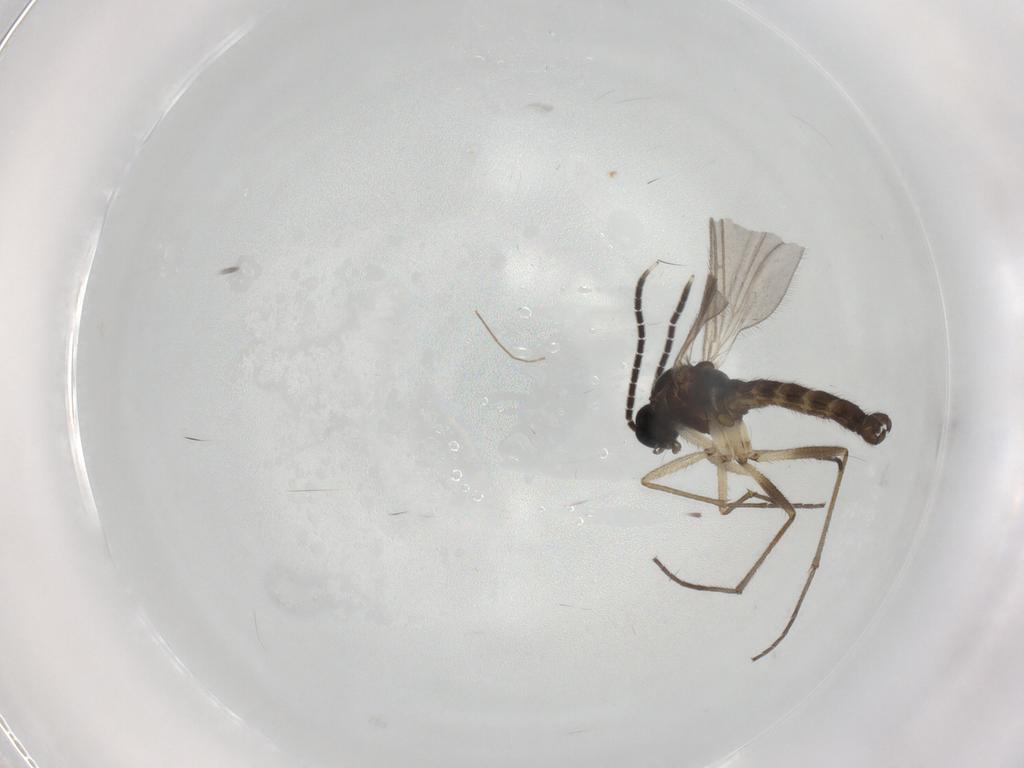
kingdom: Animalia
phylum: Arthropoda
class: Insecta
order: Diptera
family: Sciaridae
